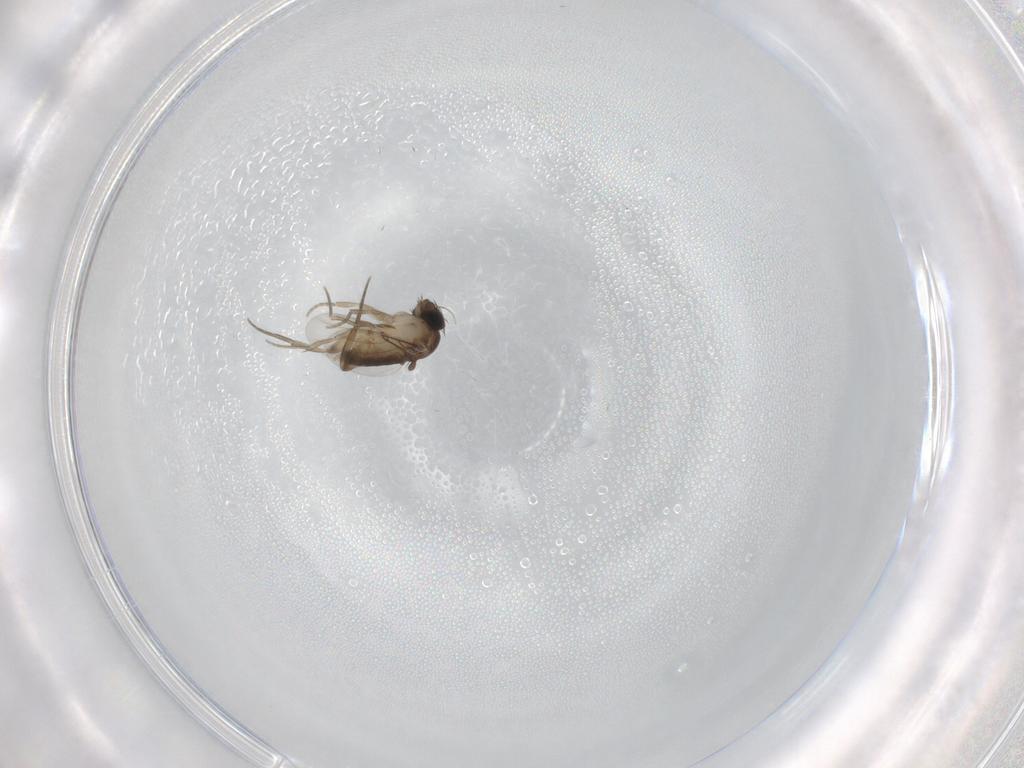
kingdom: Animalia
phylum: Arthropoda
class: Insecta
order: Diptera
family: Phoridae
